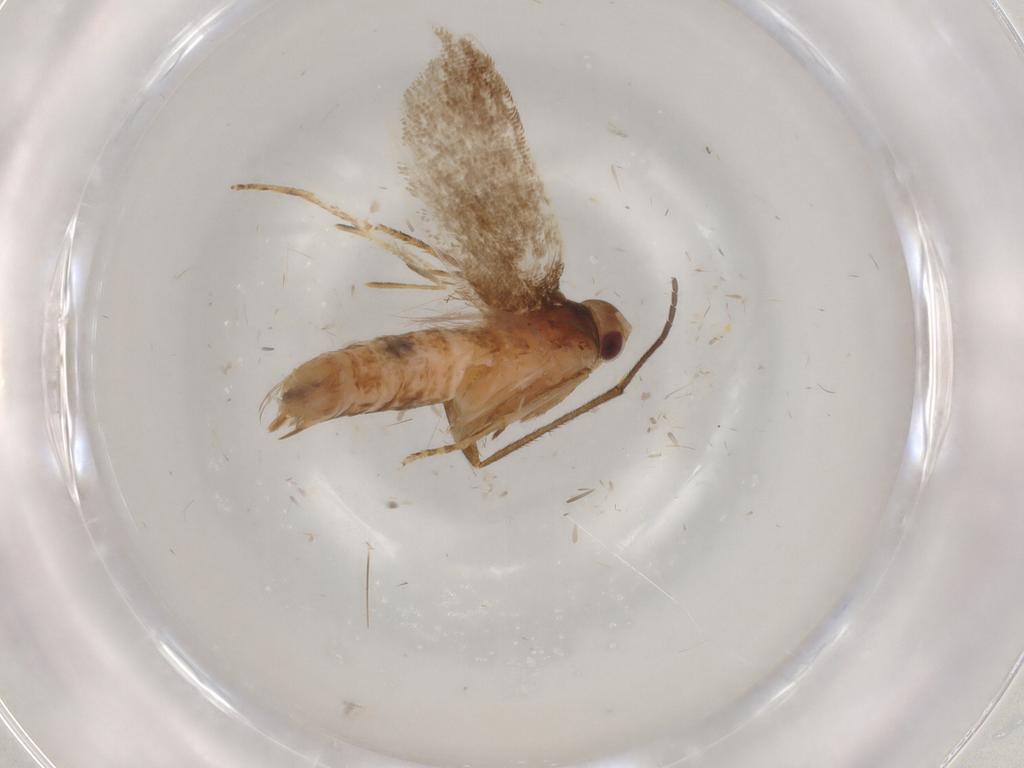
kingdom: Animalia
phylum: Arthropoda
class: Insecta
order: Lepidoptera
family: Gelechiidae
